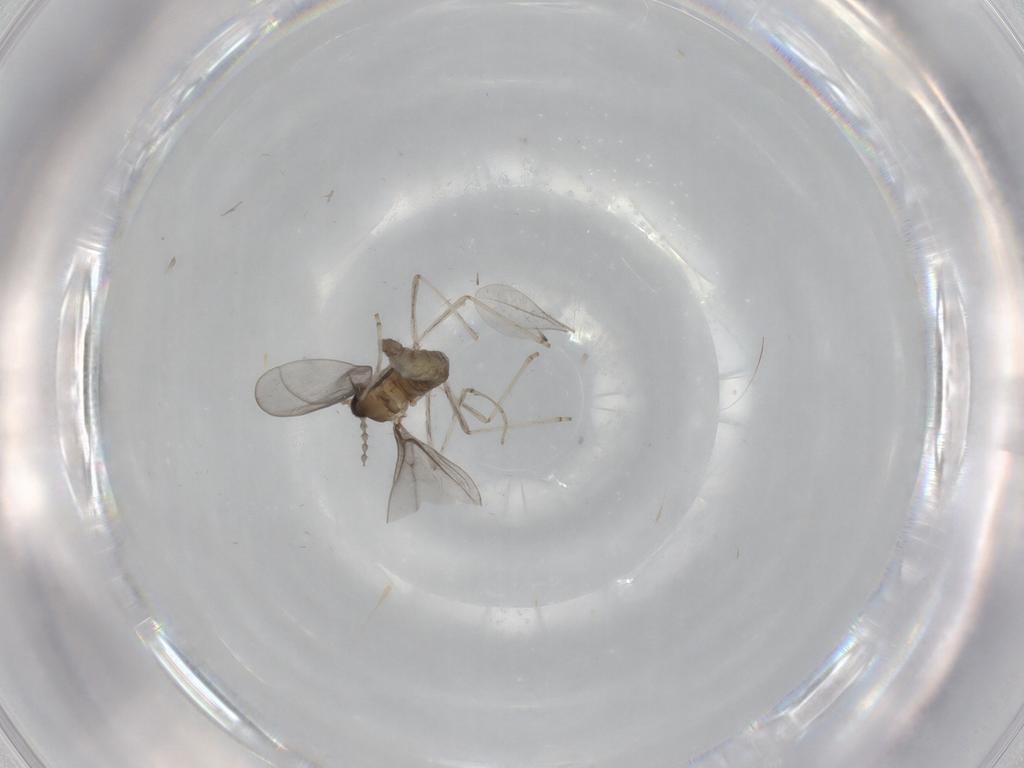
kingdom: Animalia
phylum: Arthropoda
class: Insecta
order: Diptera
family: Cecidomyiidae
